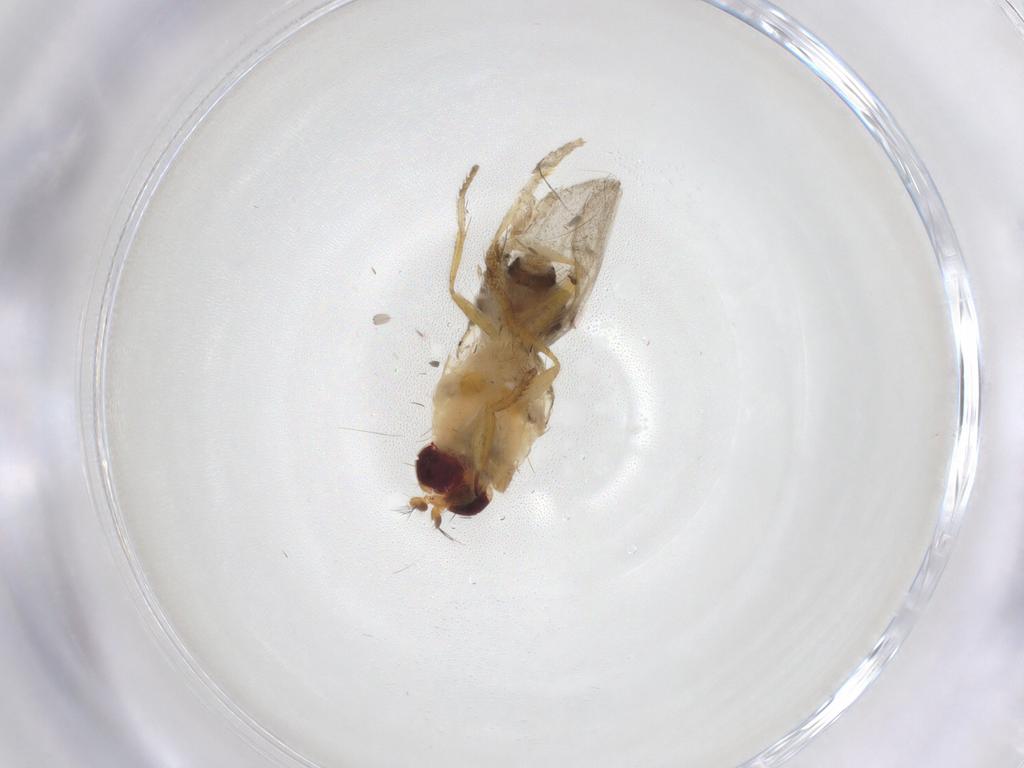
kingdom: Animalia
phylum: Arthropoda
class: Insecta
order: Diptera
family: Periscelididae
